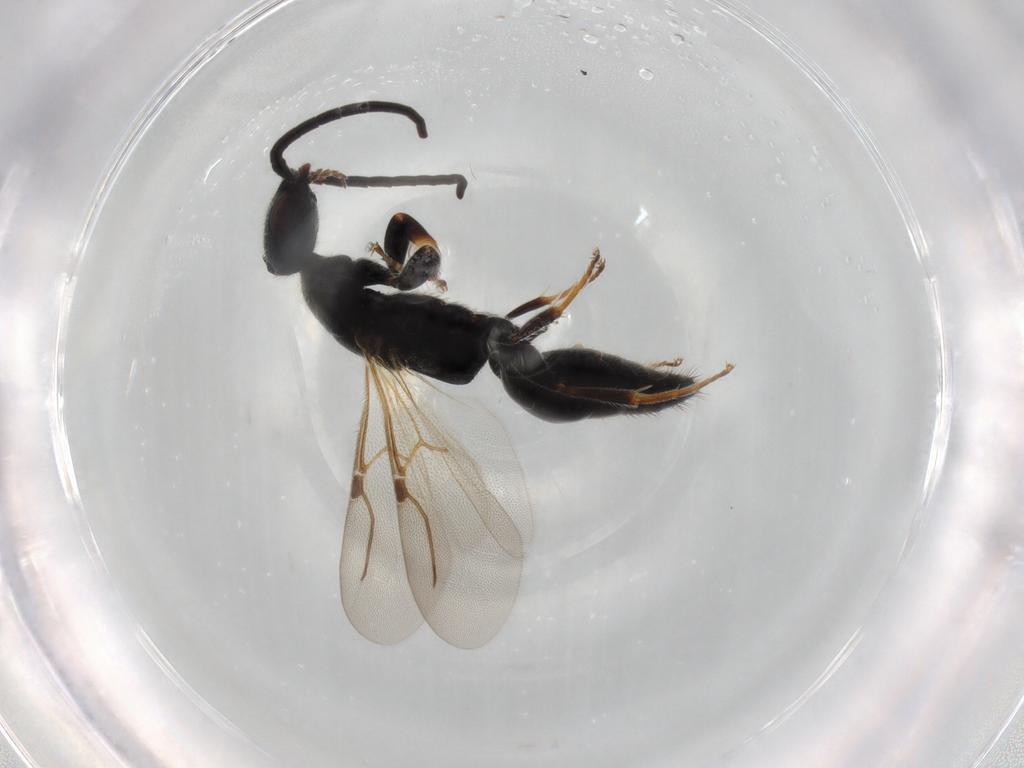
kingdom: Animalia
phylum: Arthropoda
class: Insecta
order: Hymenoptera
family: Bethylidae
